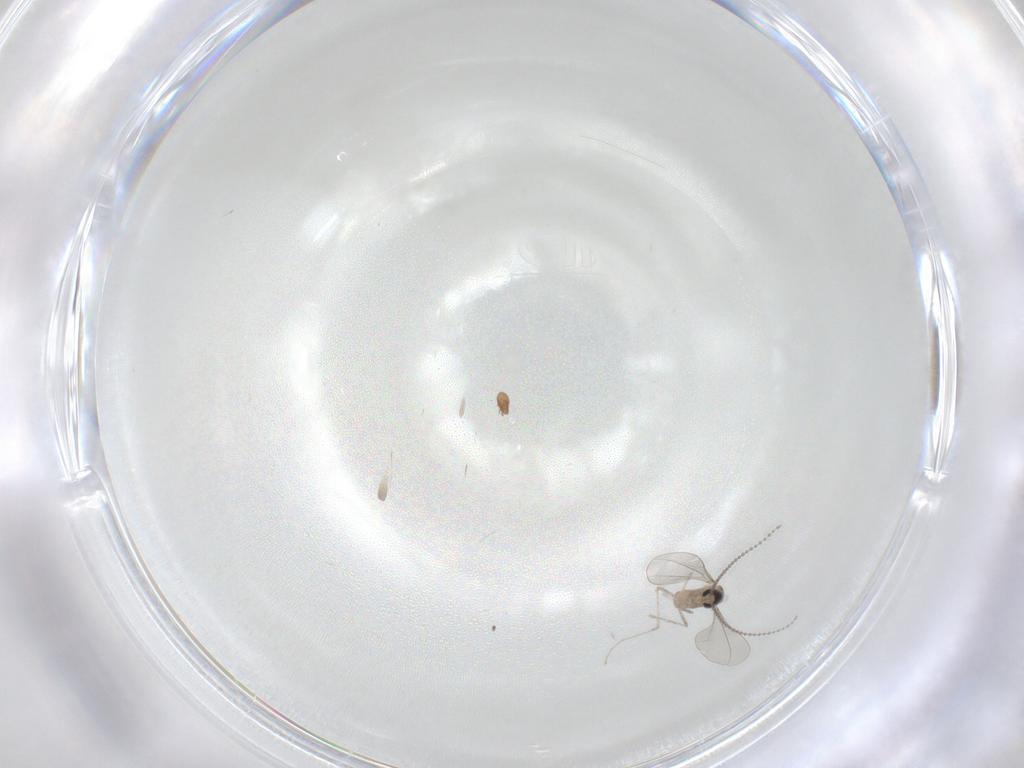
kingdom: Animalia
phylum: Arthropoda
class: Insecta
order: Diptera
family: Cecidomyiidae
